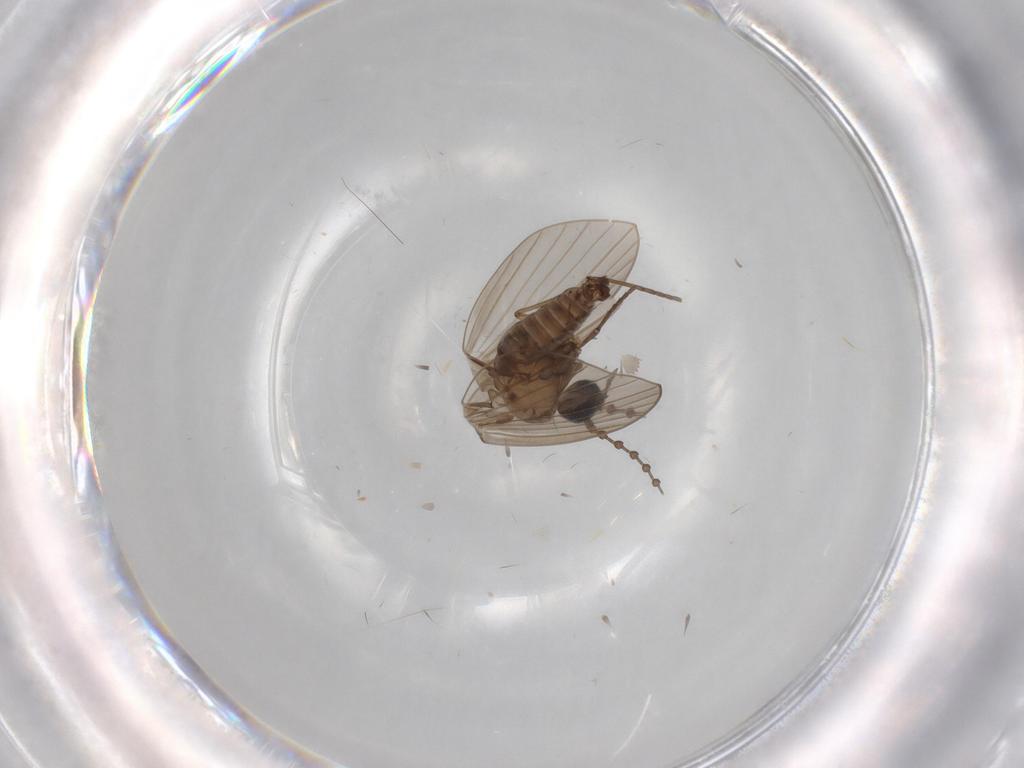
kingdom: Animalia
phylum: Arthropoda
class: Insecta
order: Diptera
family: Psychodidae
